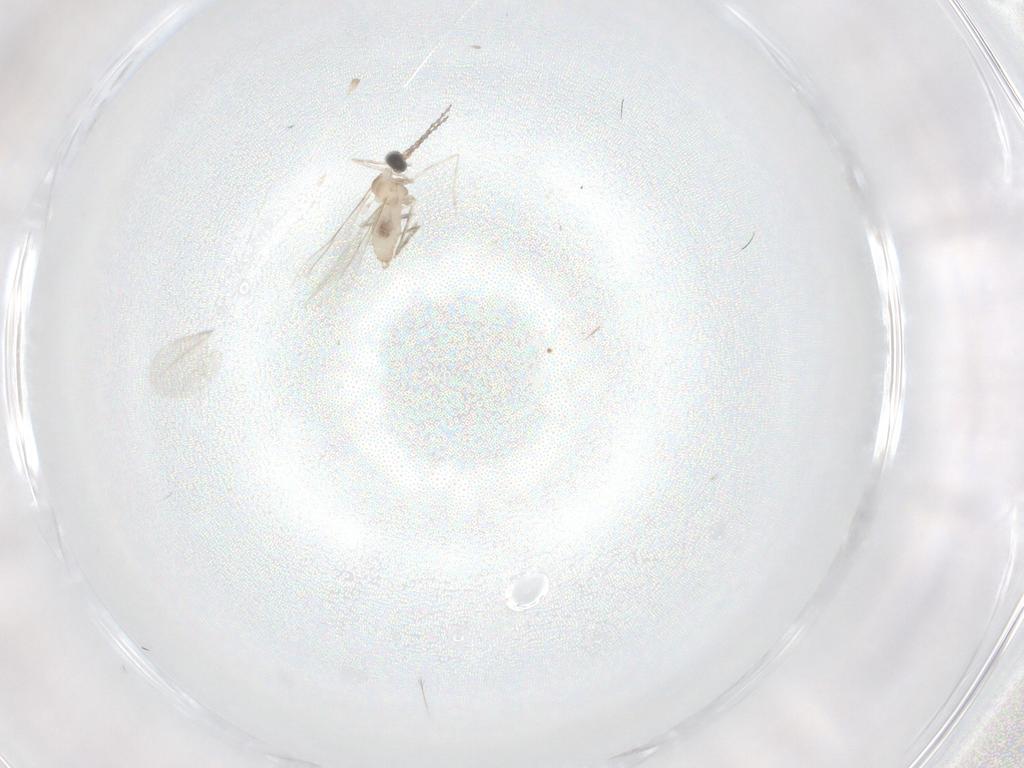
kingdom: Animalia
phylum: Arthropoda
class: Insecta
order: Diptera
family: Cecidomyiidae
